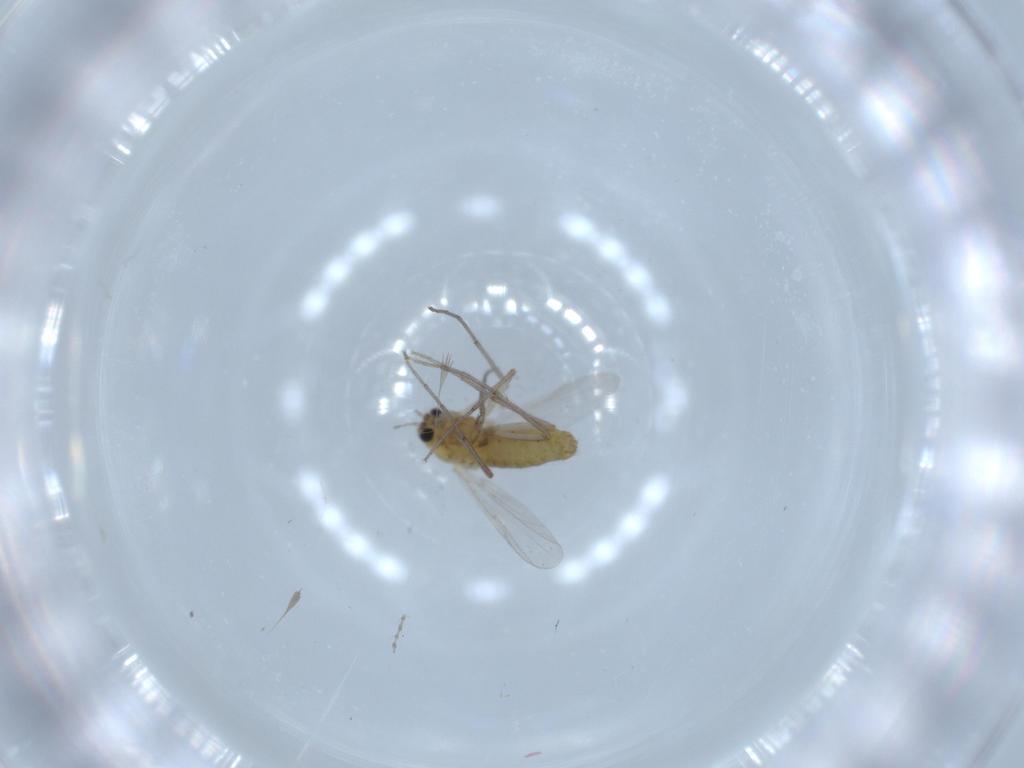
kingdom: Animalia
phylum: Arthropoda
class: Insecta
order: Diptera
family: Chironomidae
